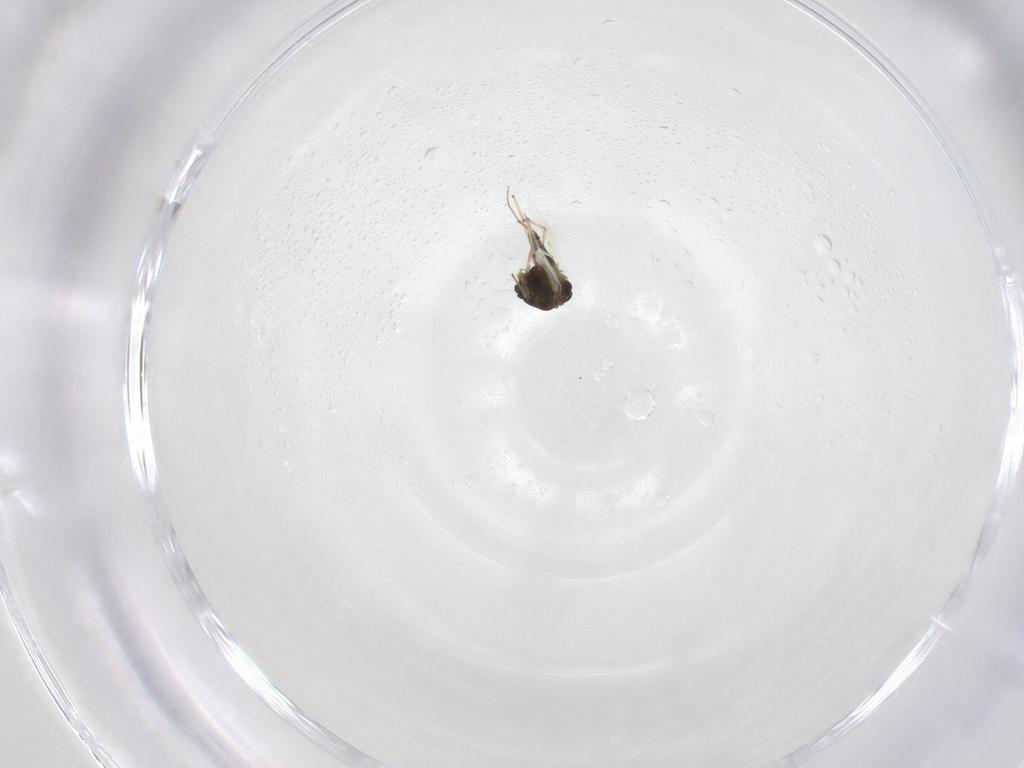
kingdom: Animalia
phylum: Arthropoda
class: Insecta
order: Diptera
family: Chironomidae
